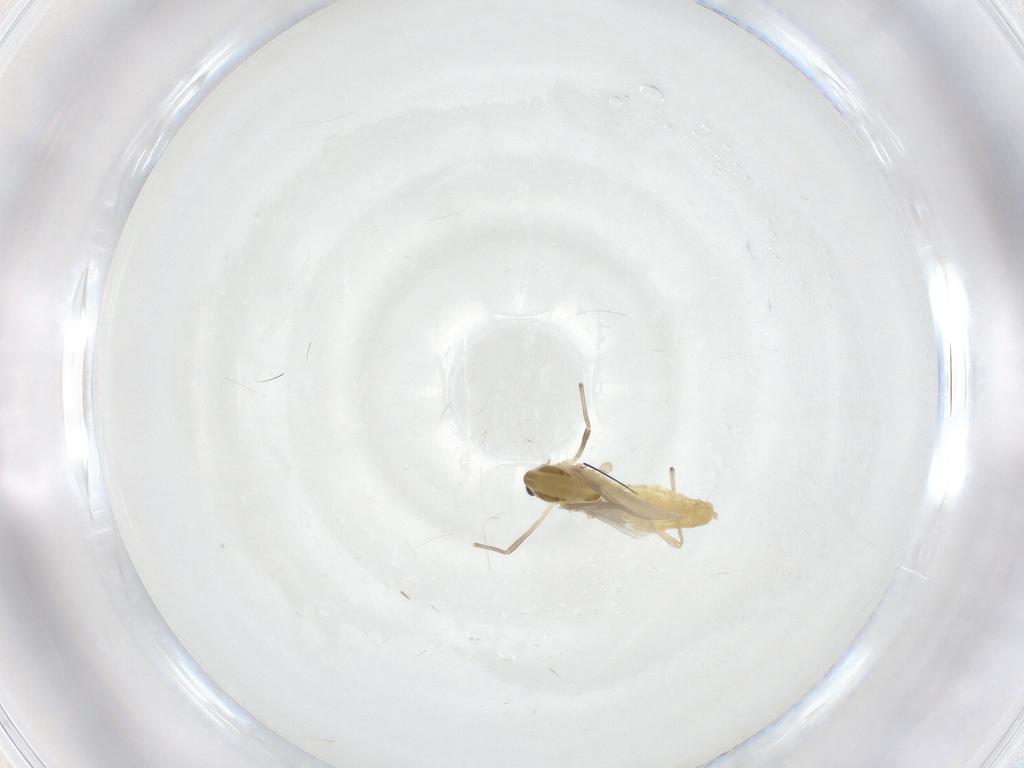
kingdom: Animalia
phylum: Arthropoda
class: Insecta
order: Diptera
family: Chironomidae
